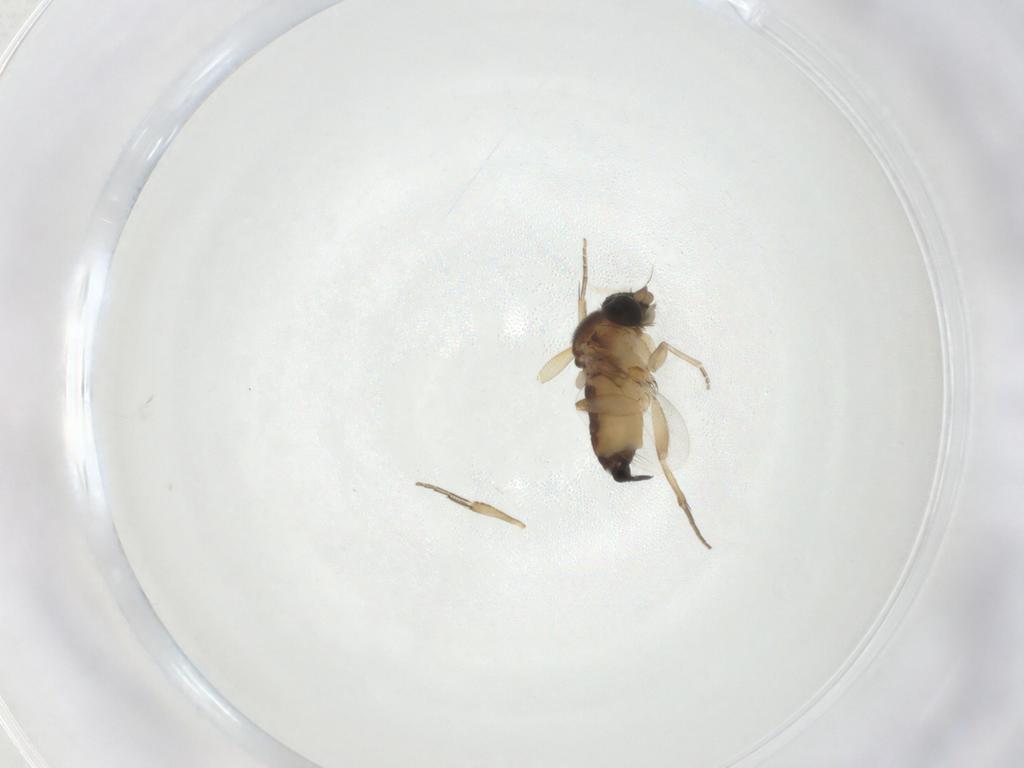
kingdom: Animalia
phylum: Arthropoda
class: Insecta
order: Diptera
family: Phoridae
